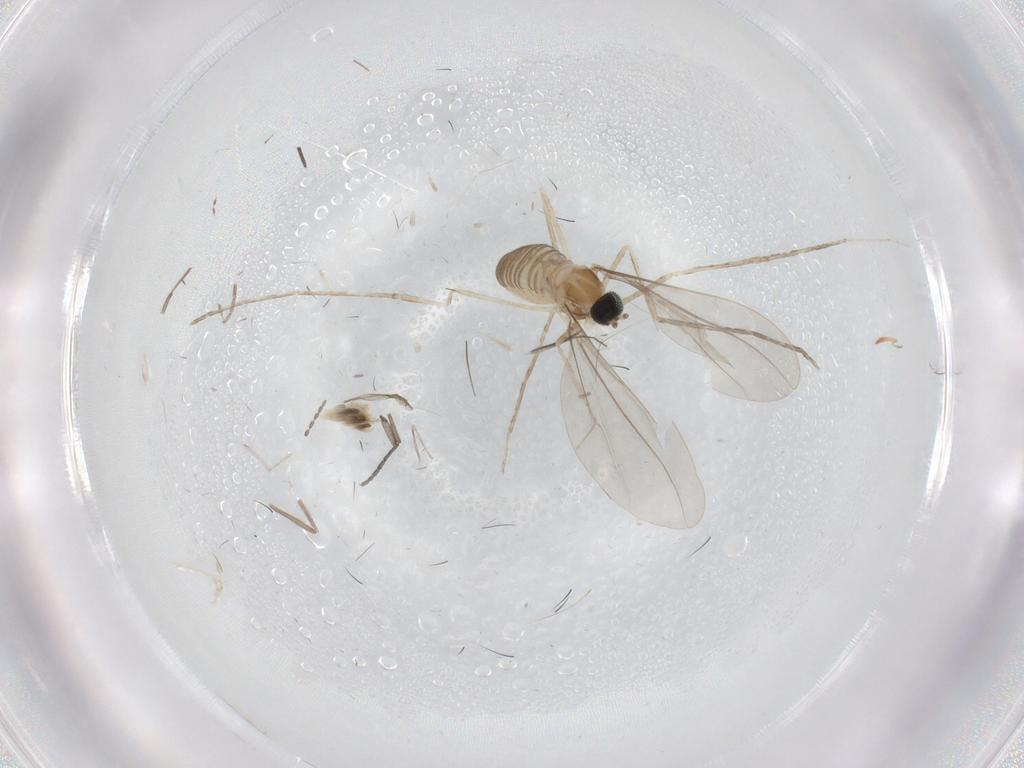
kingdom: Animalia
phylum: Arthropoda
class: Insecta
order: Diptera
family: Cecidomyiidae
